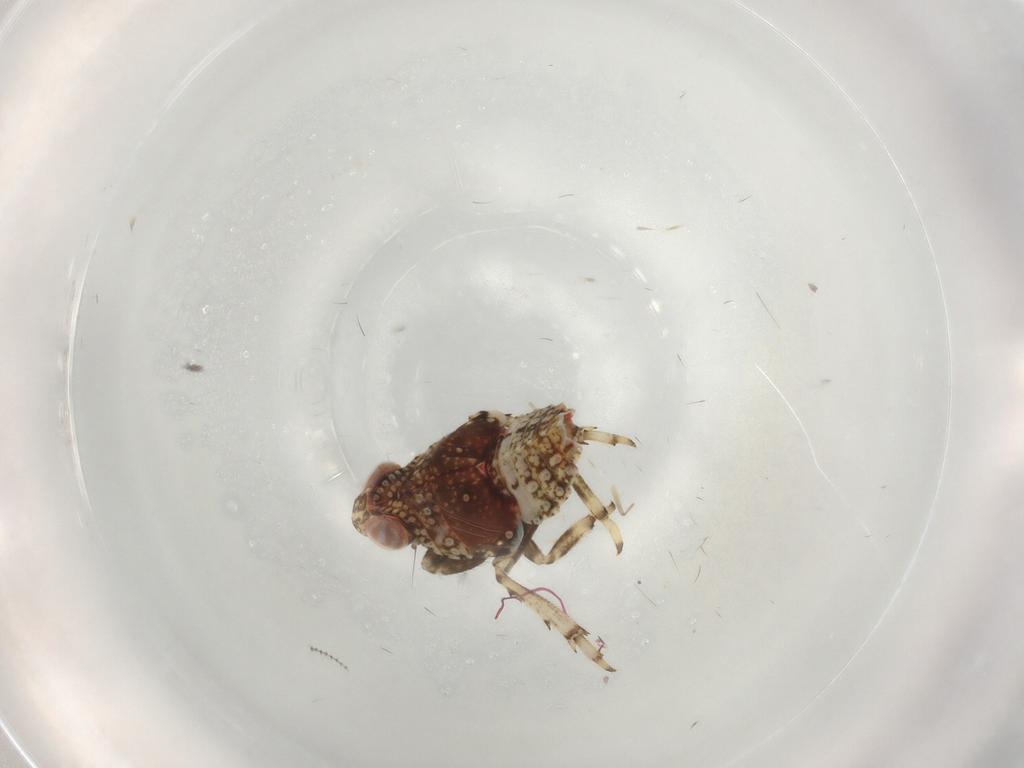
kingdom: Animalia
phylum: Arthropoda
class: Insecta
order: Hemiptera
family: Issidae
